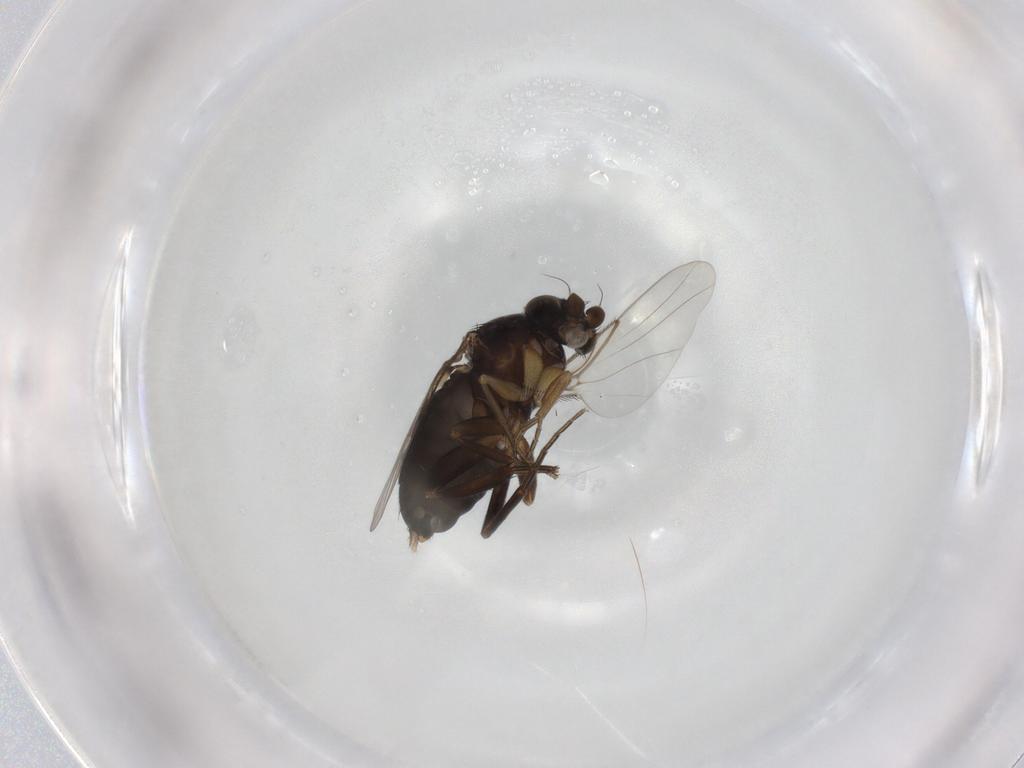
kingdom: Animalia
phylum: Arthropoda
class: Insecta
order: Diptera
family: Phoridae
